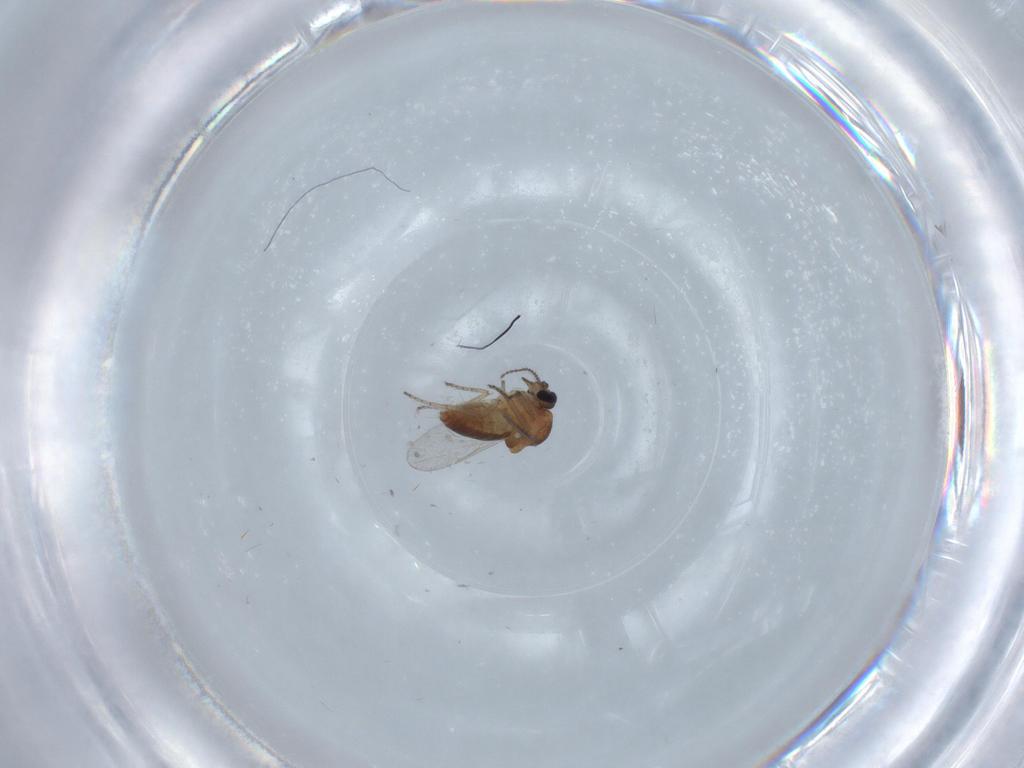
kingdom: Animalia
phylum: Arthropoda
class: Insecta
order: Diptera
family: Ceratopogonidae
